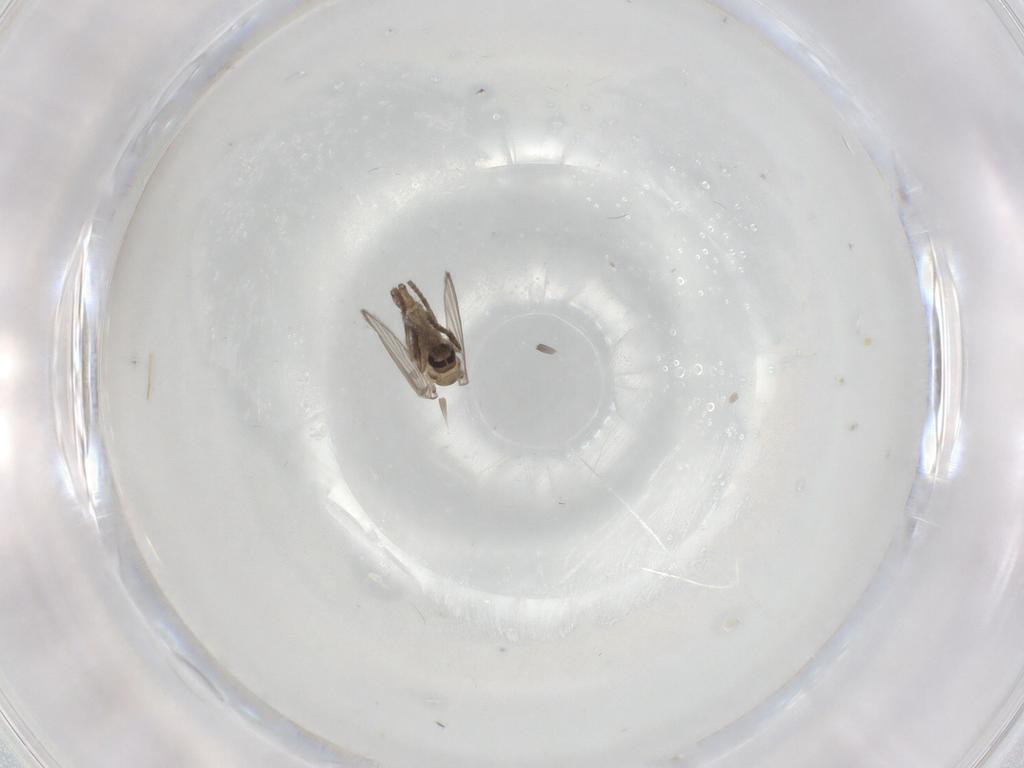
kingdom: Animalia
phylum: Arthropoda
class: Insecta
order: Diptera
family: Psychodidae
